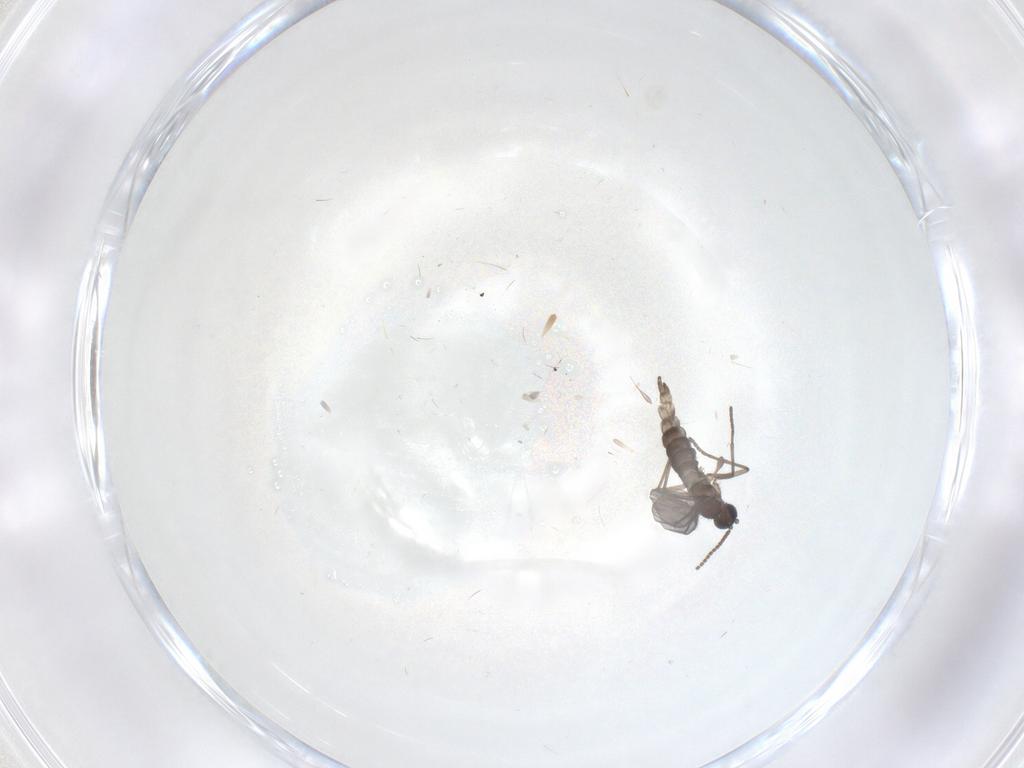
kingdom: Animalia
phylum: Arthropoda
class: Insecta
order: Diptera
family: Sciaridae
